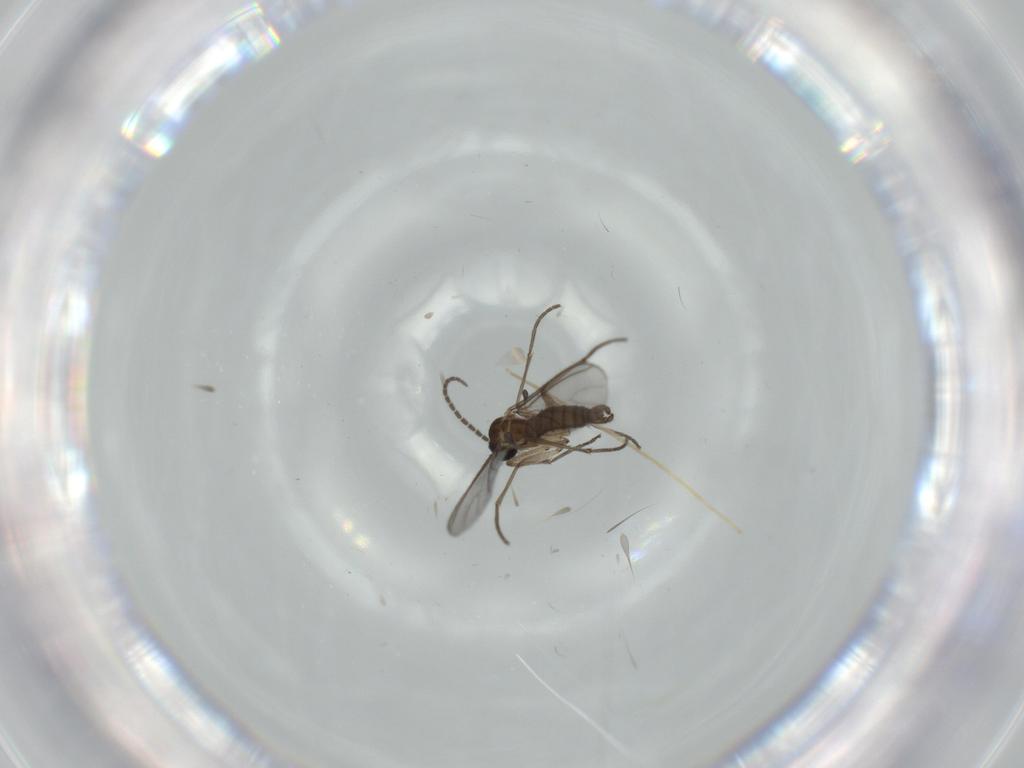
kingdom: Animalia
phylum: Arthropoda
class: Insecta
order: Diptera
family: Sciaridae
